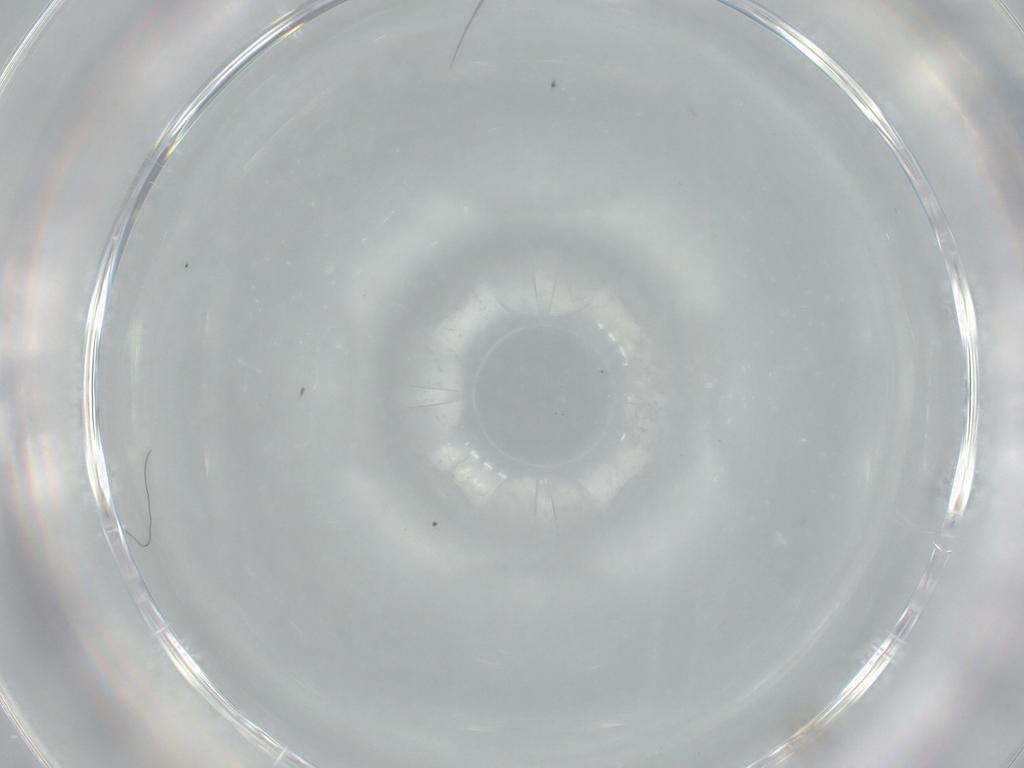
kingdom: Animalia
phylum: Arthropoda
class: Insecta
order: Diptera
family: Cecidomyiidae
